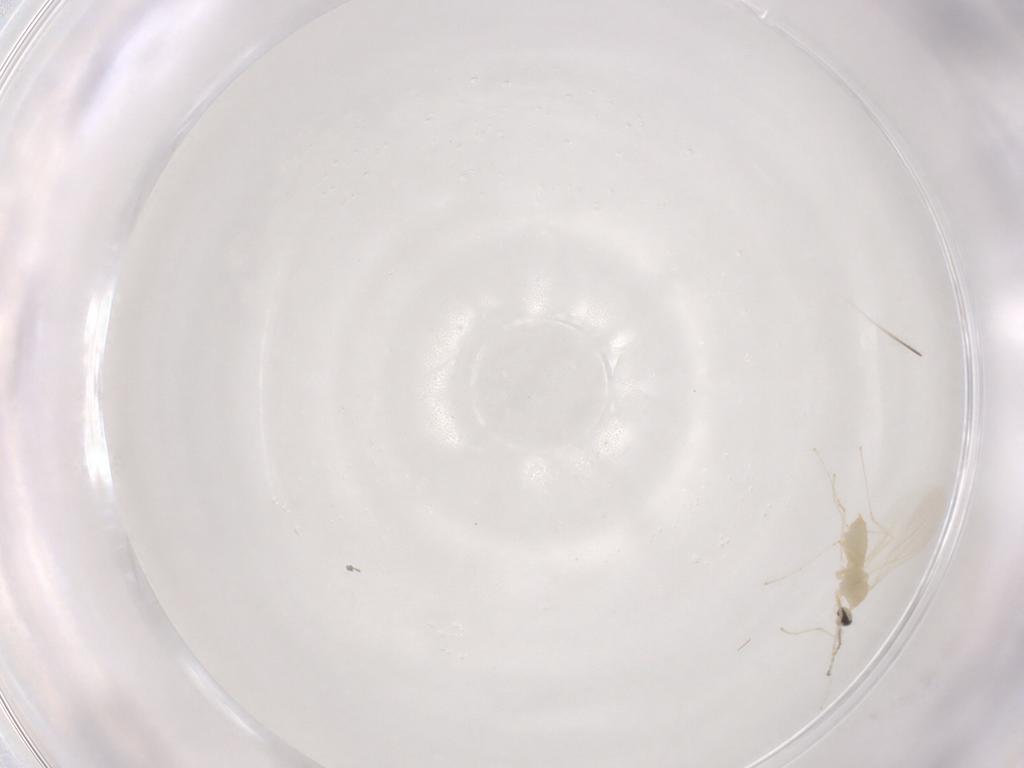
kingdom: Animalia
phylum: Arthropoda
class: Insecta
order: Diptera
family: Cecidomyiidae
